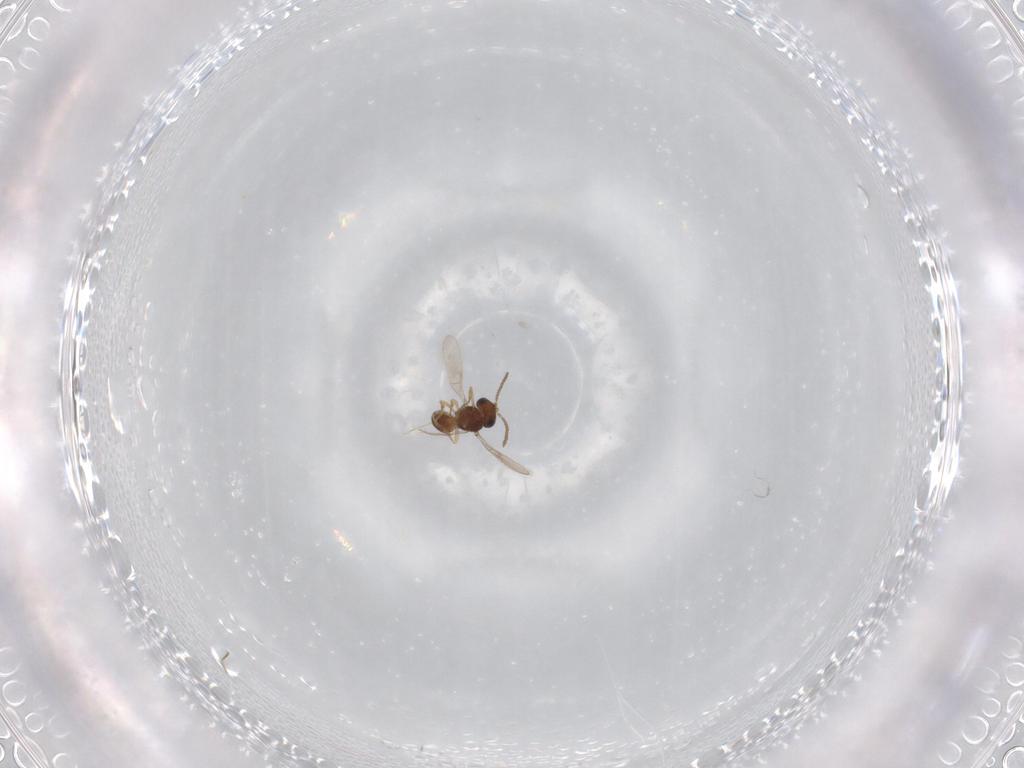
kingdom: Animalia
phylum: Arthropoda
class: Insecta
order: Hymenoptera
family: Scelionidae
